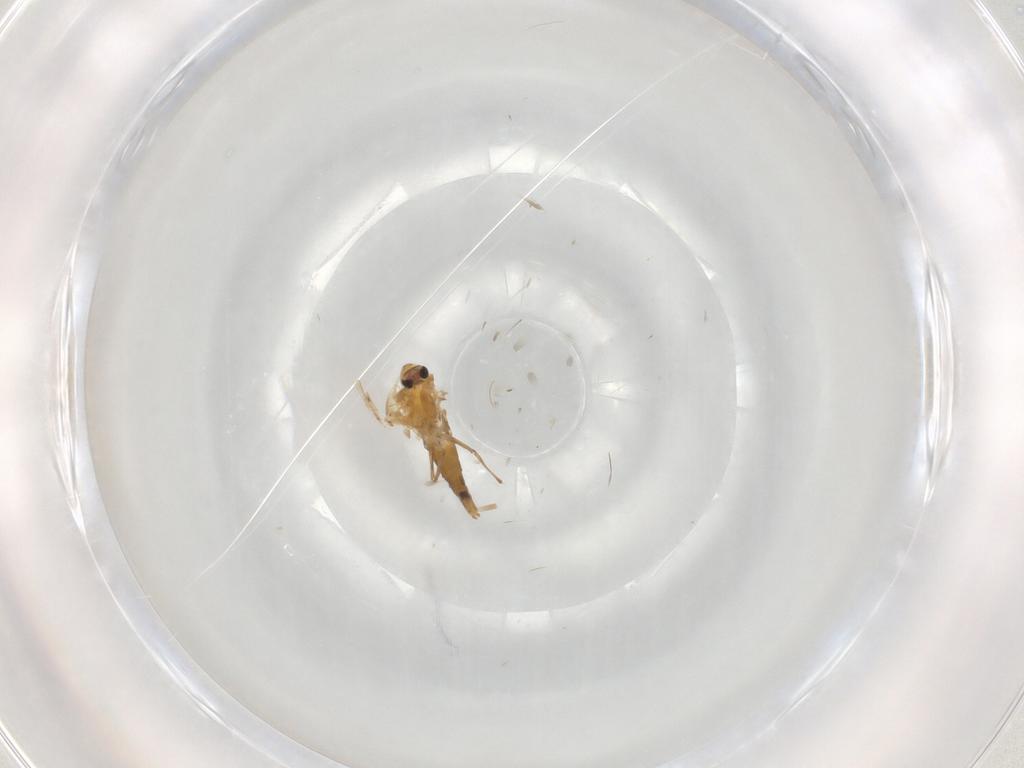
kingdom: Animalia
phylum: Arthropoda
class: Insecta
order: Diptera
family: Chironomidae
